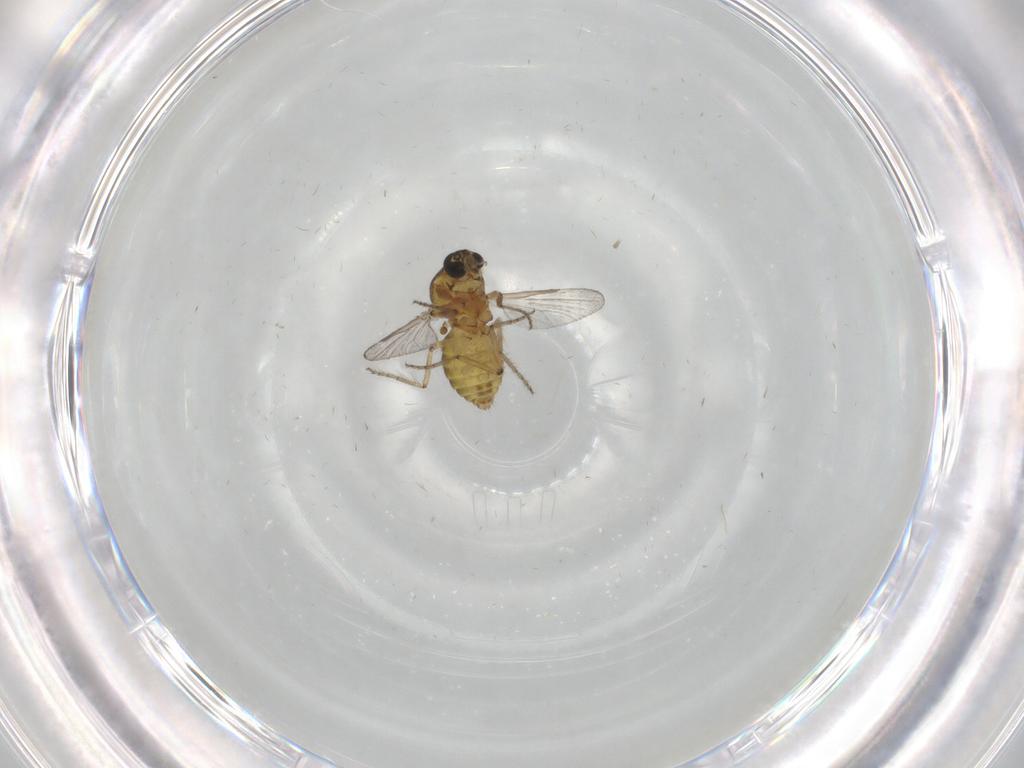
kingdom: Animalia
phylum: Arthropoda
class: Insecta
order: Diptera
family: Ceratopogonidae
